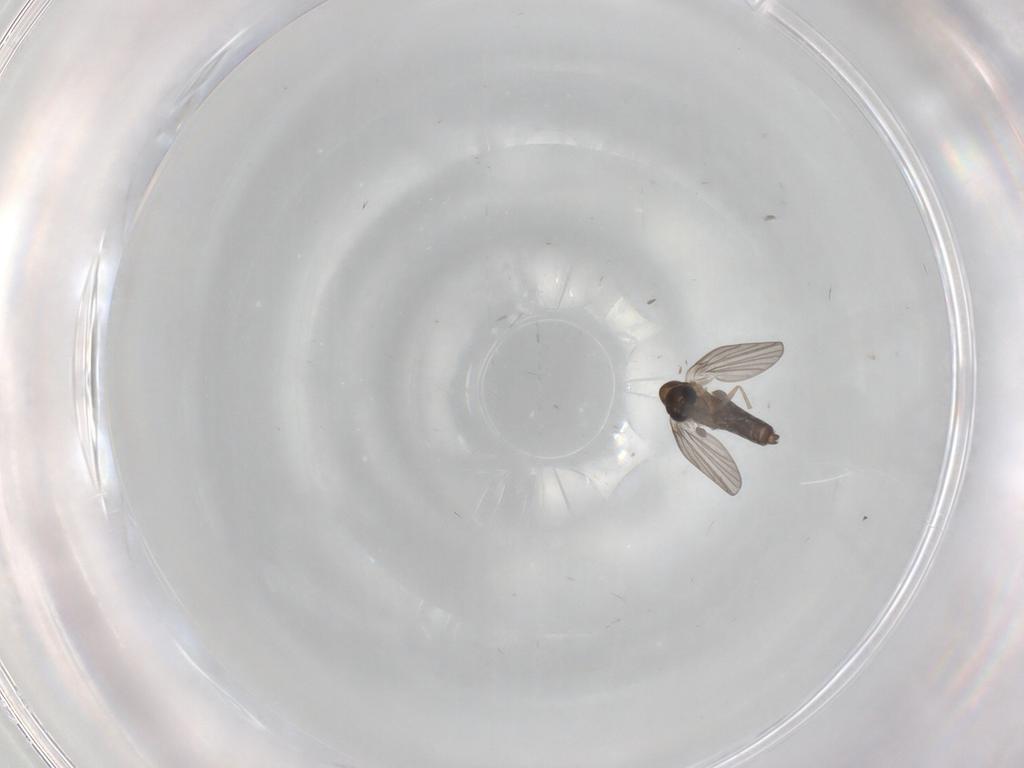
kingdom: Animalia
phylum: Arthropoda
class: Insecta
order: Diptera
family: Psychodidae
